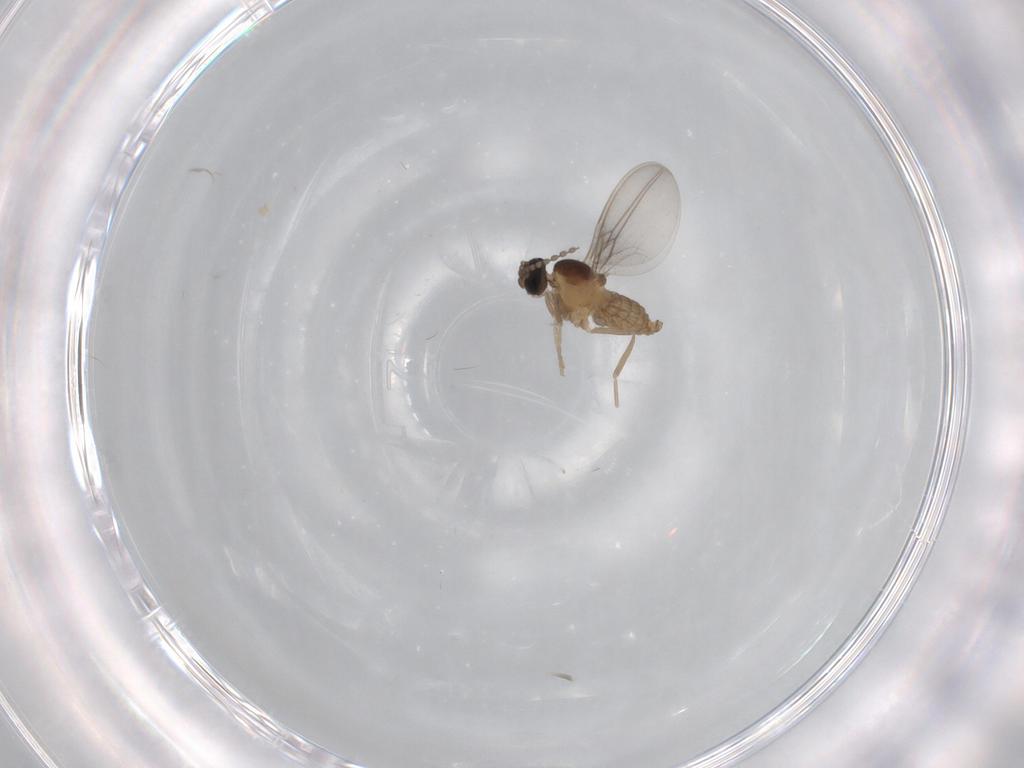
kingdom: Animalia
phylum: Arthropoda
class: Insecta
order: Diptera
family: Cecidomyiidae
